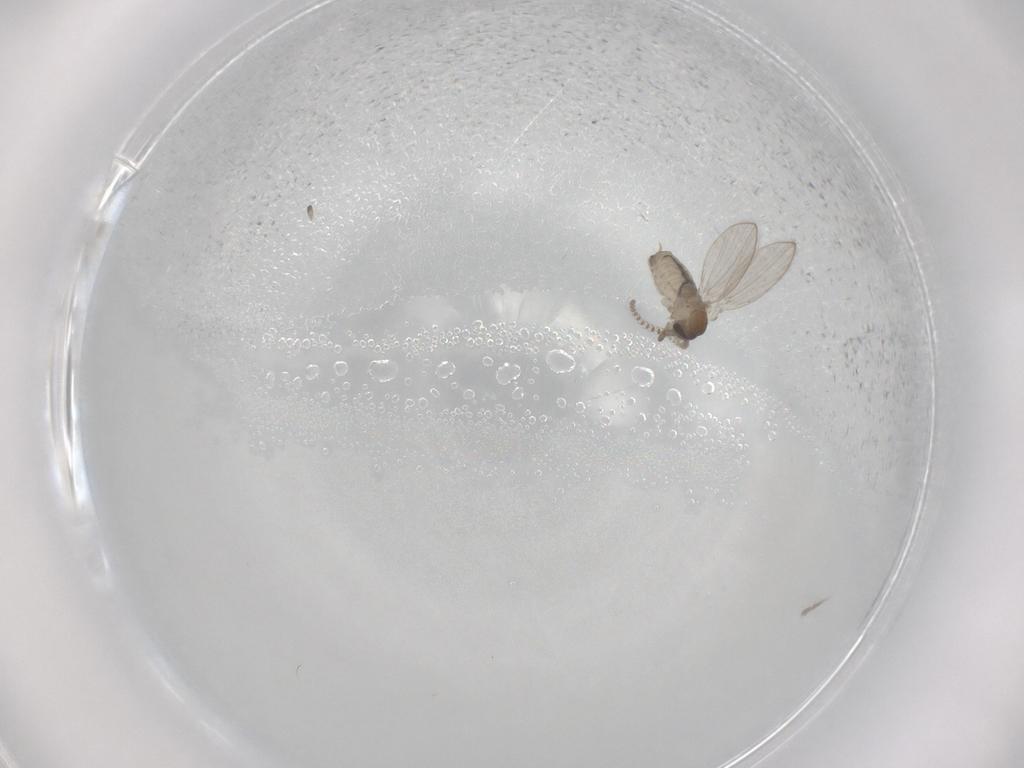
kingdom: Animalia
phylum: Arthropoda
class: Insecta
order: Diptera
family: Psychodidae
